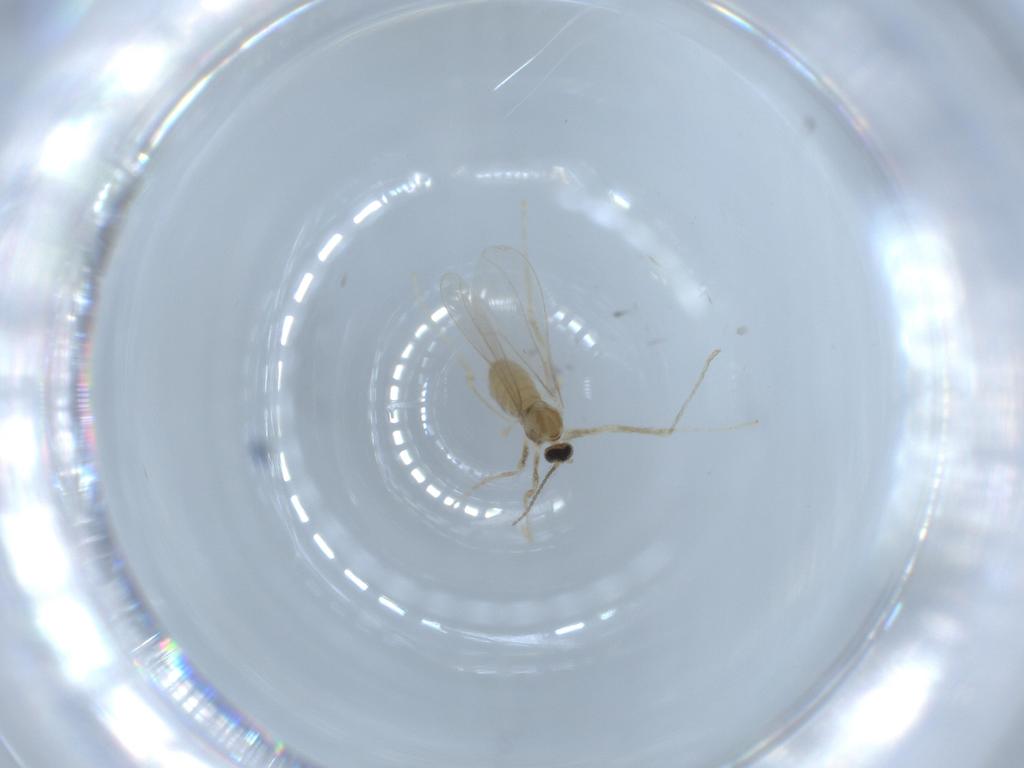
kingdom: Animalia
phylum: Arthropoda
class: Insecta
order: Diptera
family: Cecidomyiidae
